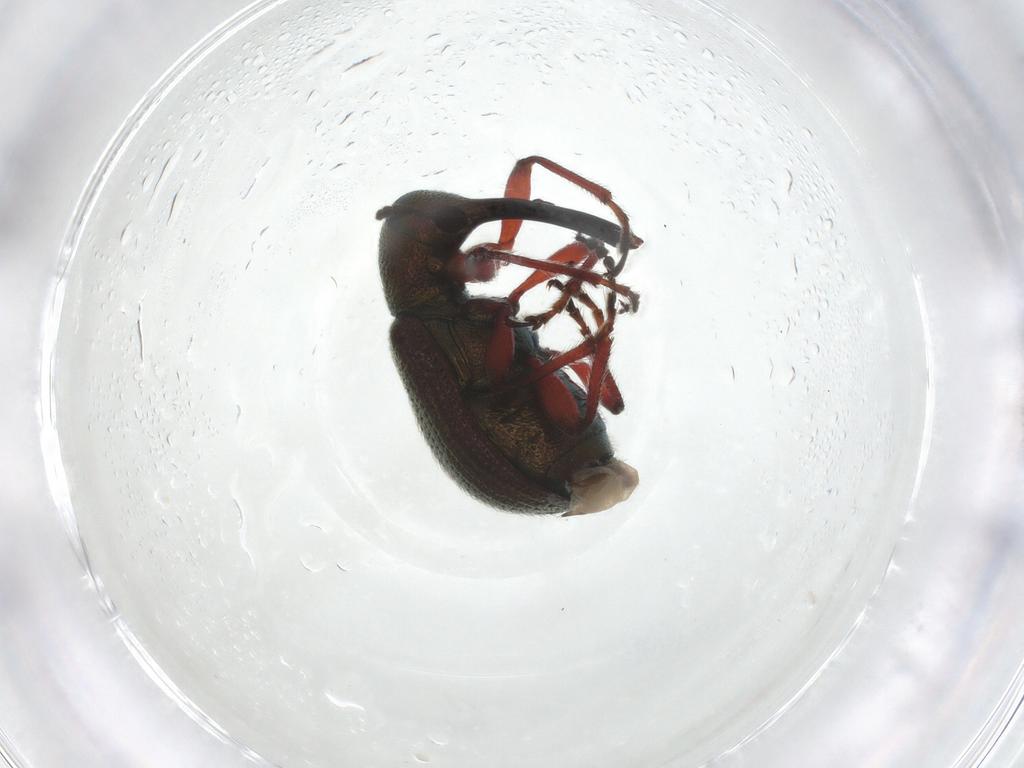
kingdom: Animalia
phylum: Arthropoda
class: Insecta
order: Coleoptera
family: Attelabidae
